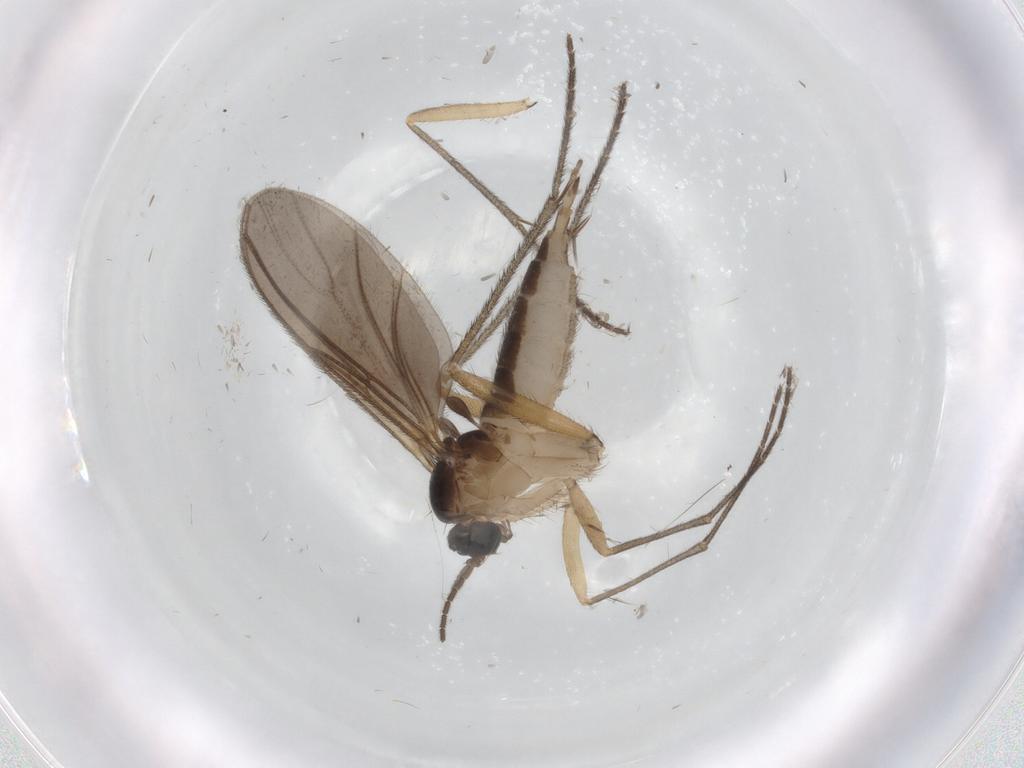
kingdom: Animalia
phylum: Arthropoda
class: Insecta
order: Diptera
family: Sciaridae
